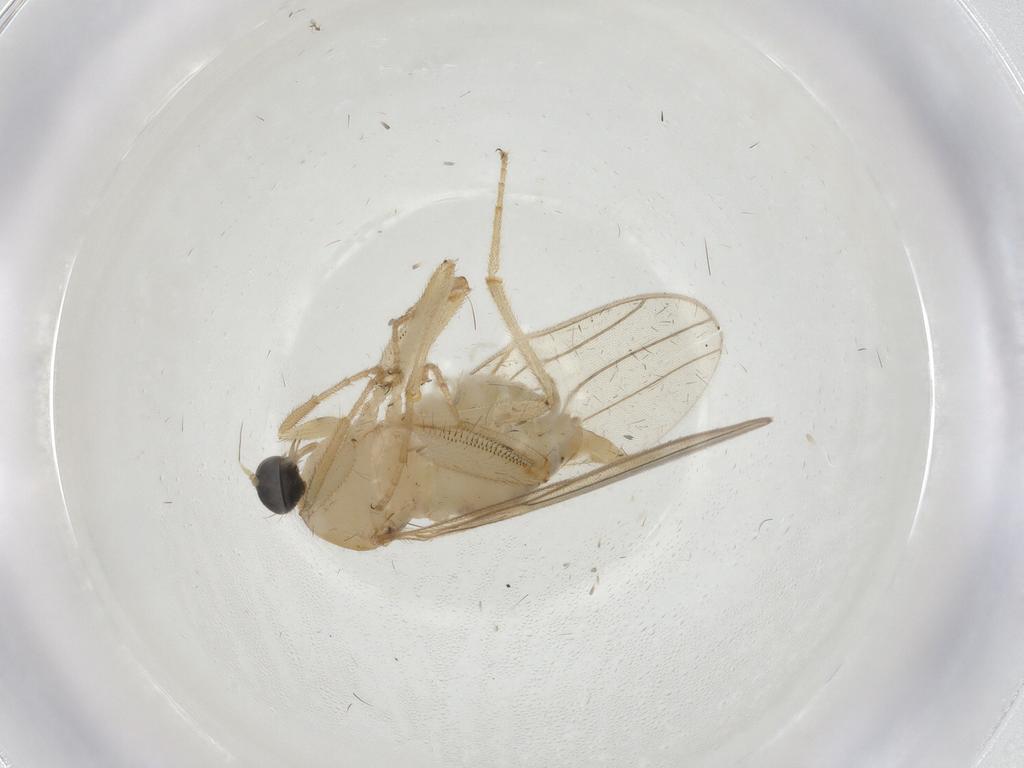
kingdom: Animalia
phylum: Arthropoda
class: Insecta
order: Diptera
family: Hybotidae
